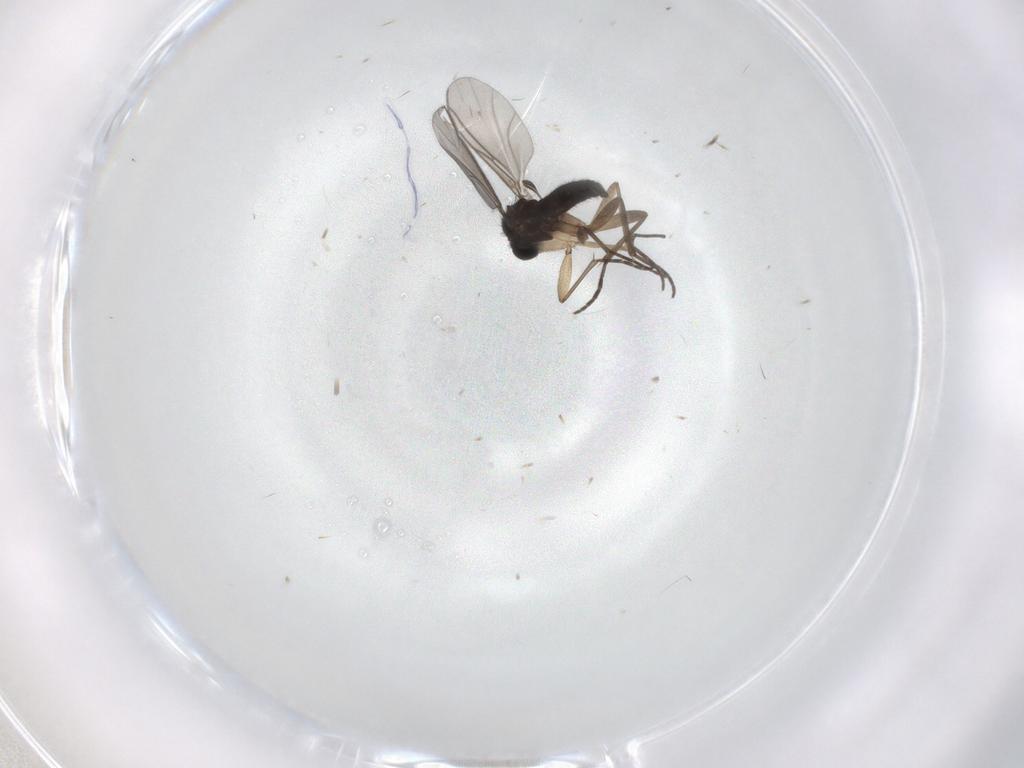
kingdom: Animalia
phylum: Arthropoda
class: Insecta
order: Diptera
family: Sciaridae
